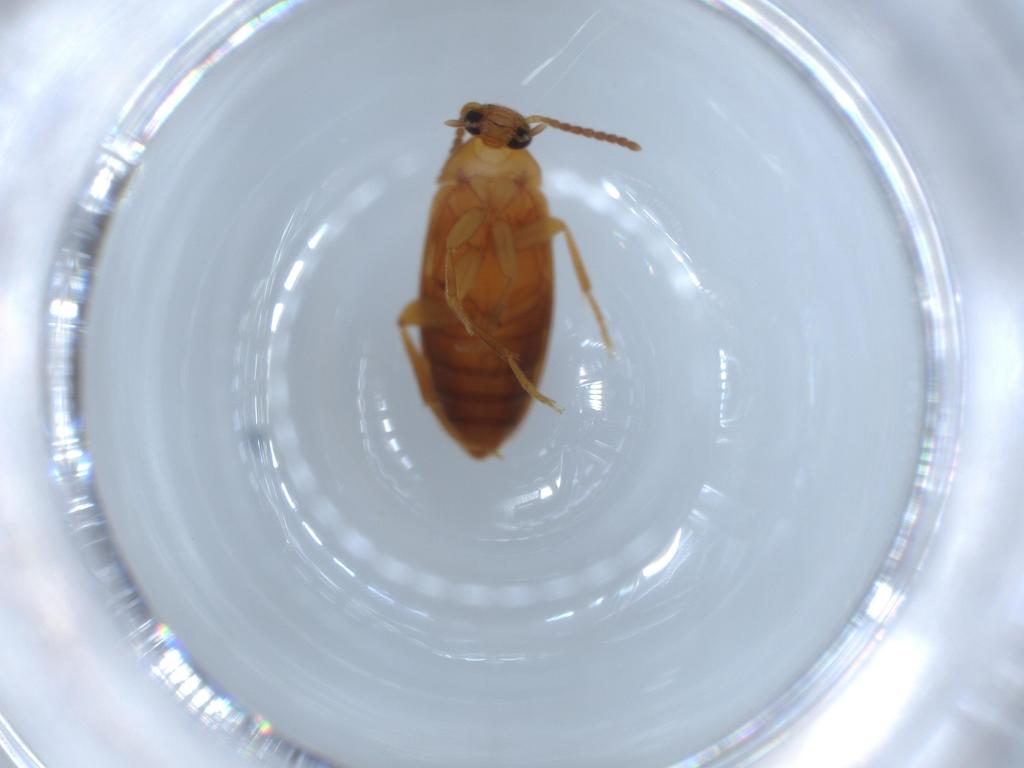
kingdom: Animalia
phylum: Arthropoda
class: Insecta
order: Coleoptera
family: Scraptiidae
